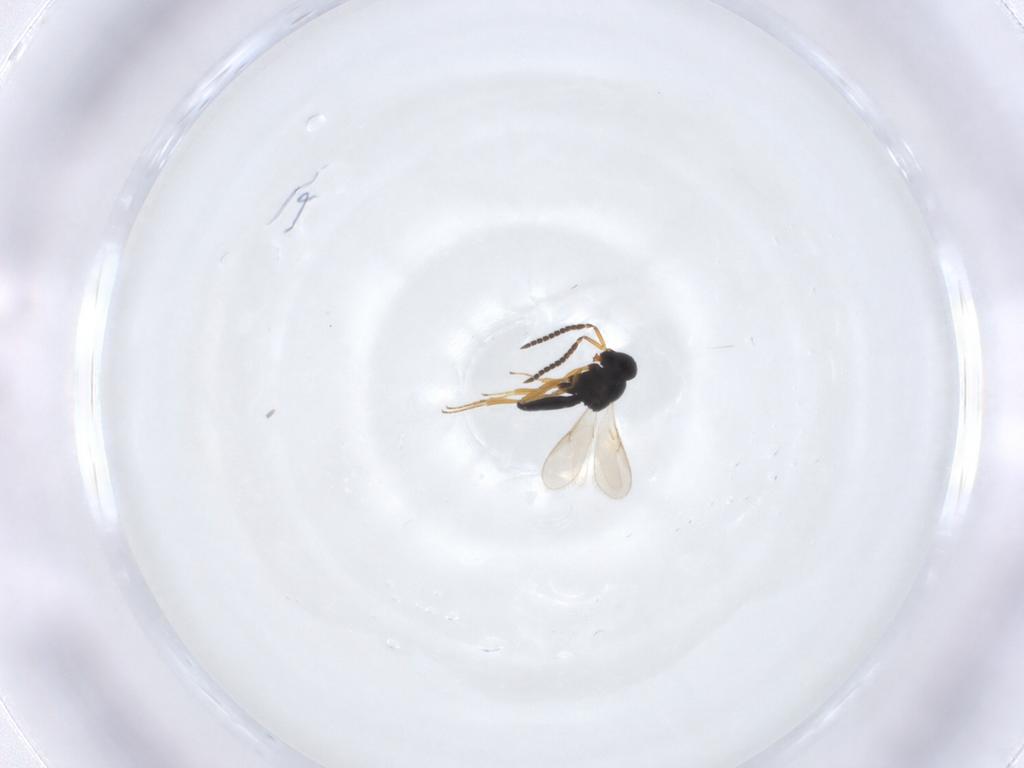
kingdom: Animalia
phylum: Arthropoda
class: Insecta
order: Hymenoptera
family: Scelionidae
